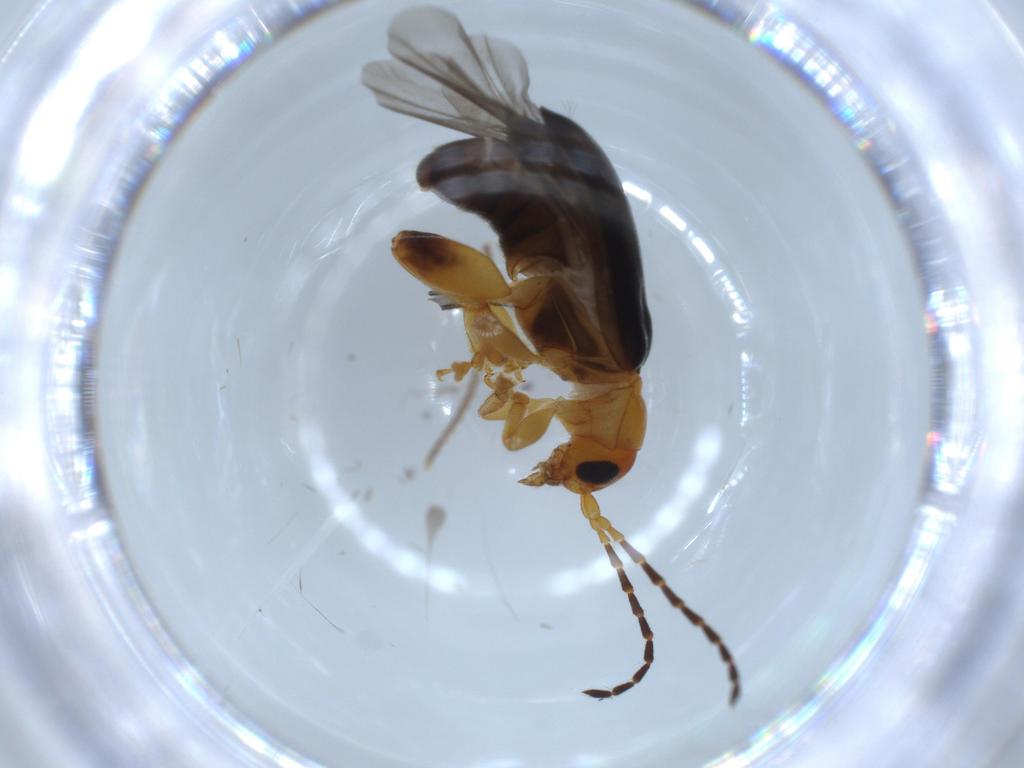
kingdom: Animalia
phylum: Arthropoda
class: Insecta
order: Coleoptera
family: Chrysomelidae
